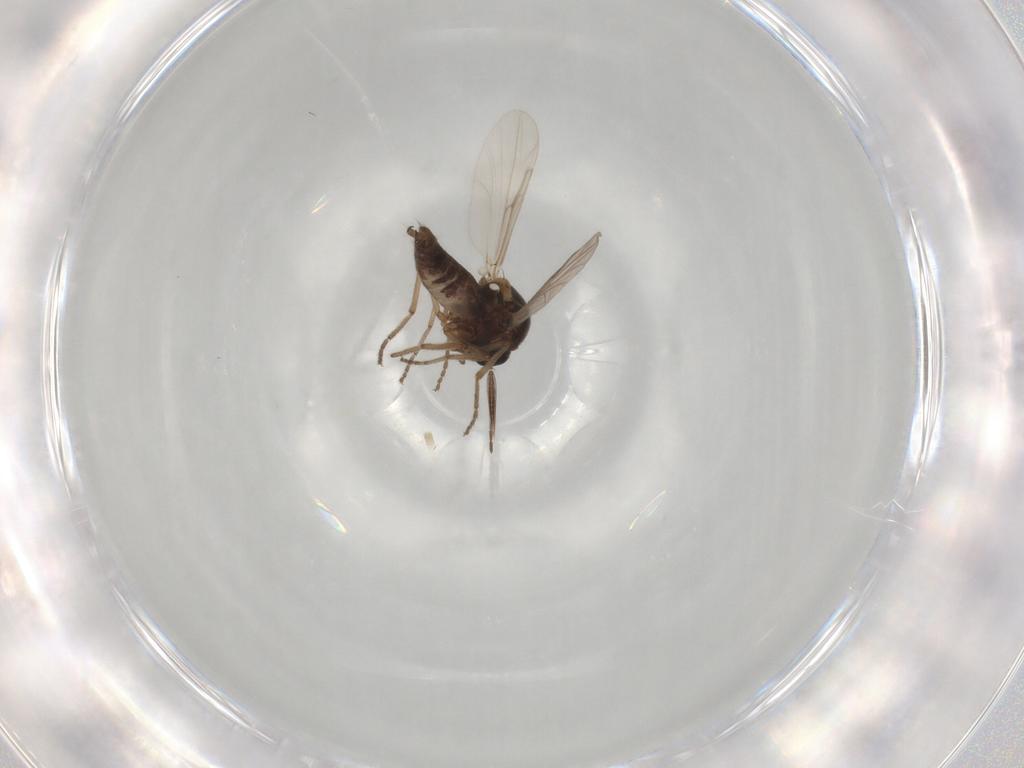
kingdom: Animalia
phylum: Arthropoda
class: Insecta
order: Diptera
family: Ceratopogonidae
